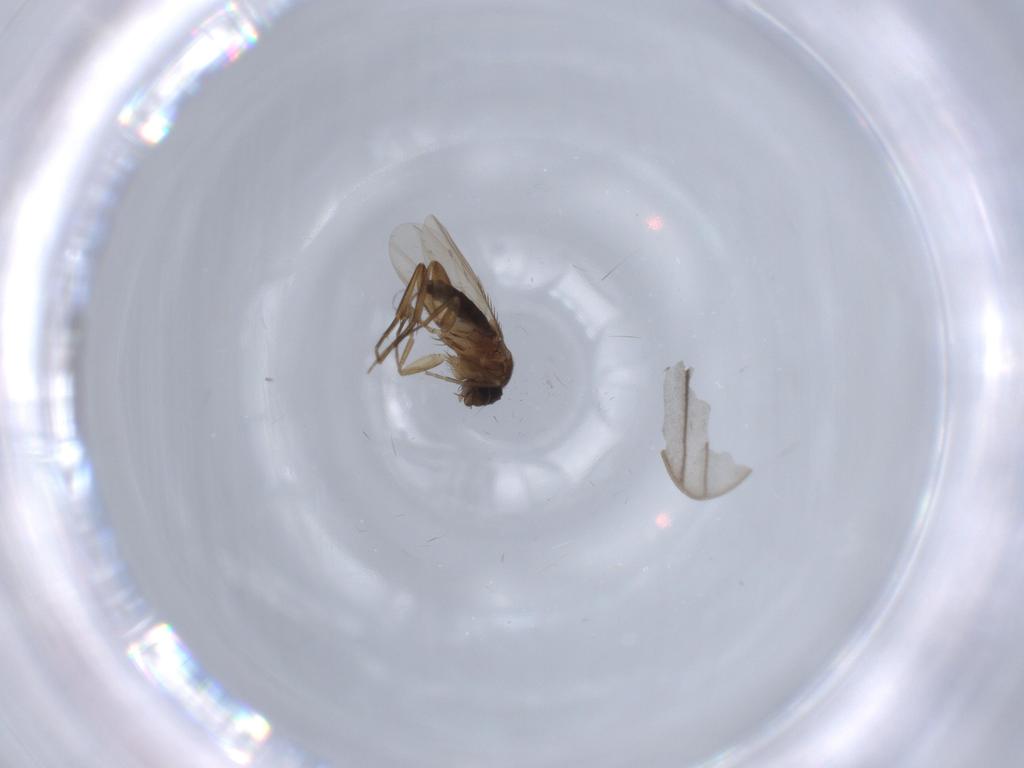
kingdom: Animalia
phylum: Arthropoda
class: Insecta
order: Diptera
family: Phoridae
